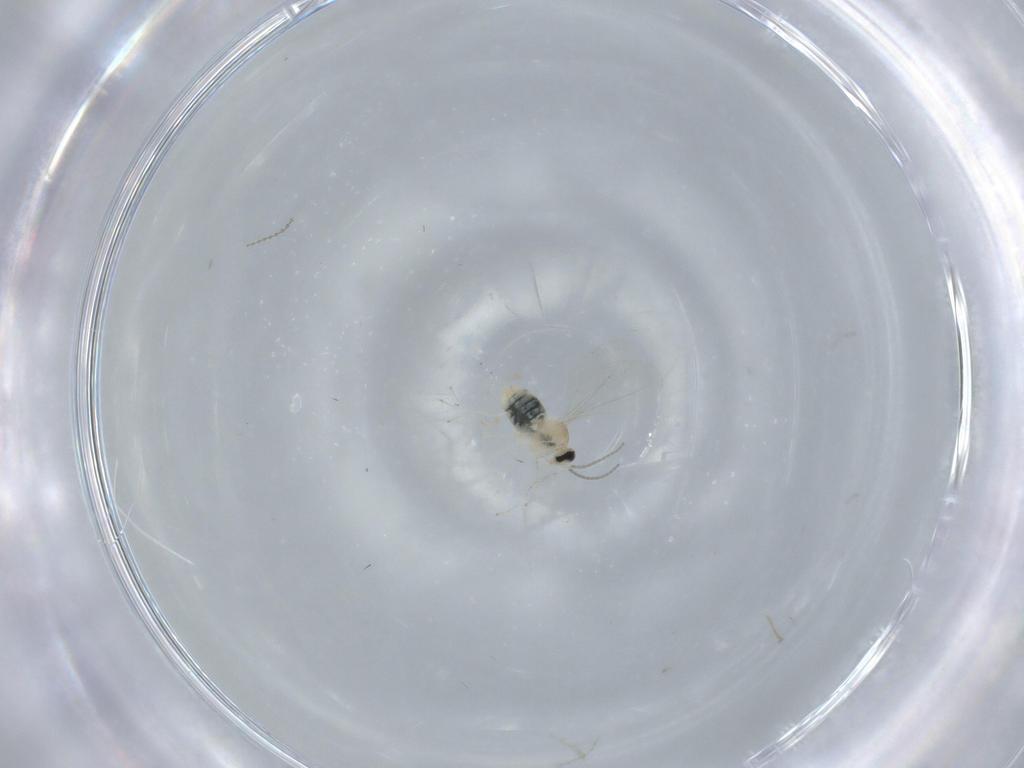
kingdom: Animalia
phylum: Arthropoda
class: Insecta
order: Diptera
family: Cecidomyiidae
